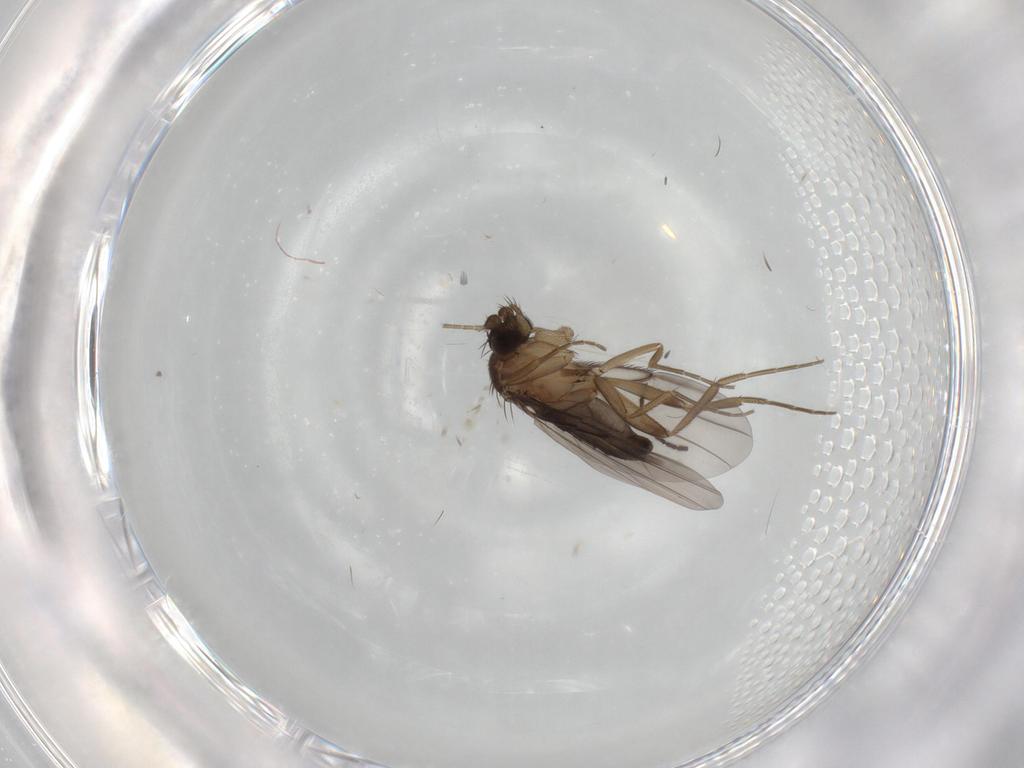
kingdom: Animalia
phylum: Arthropoda
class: Insecta
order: Diptera
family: Phoridae
